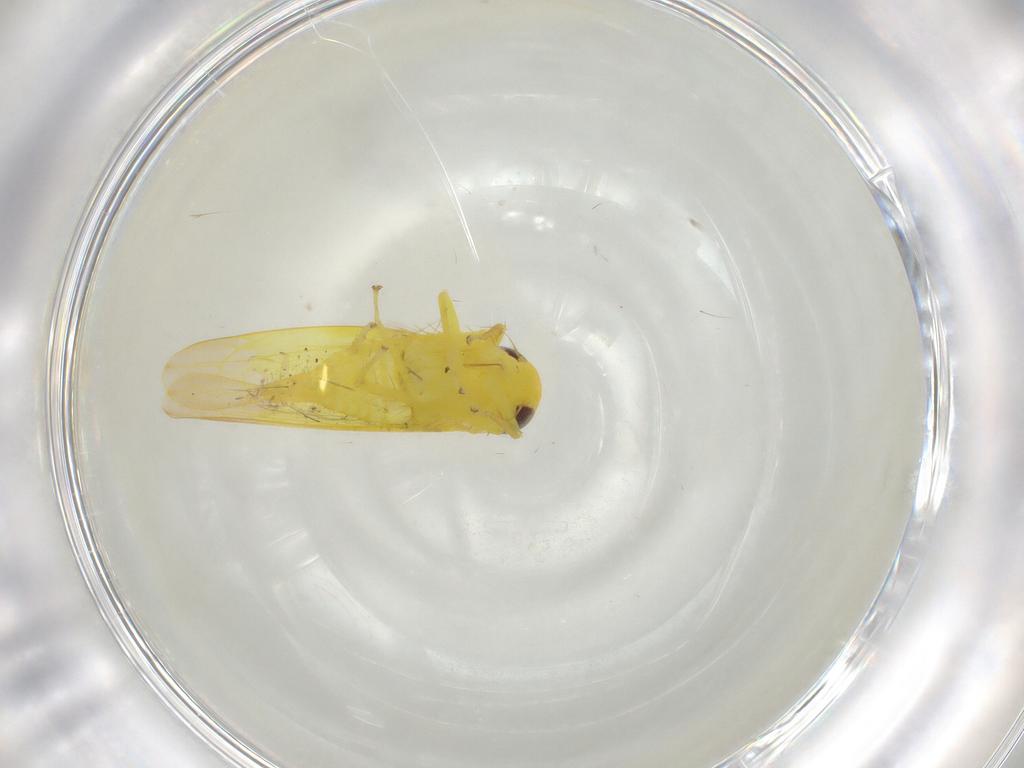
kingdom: Animalia
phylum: Arthropoda
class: Insecta
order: Hemiptera
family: Cicadellidae
